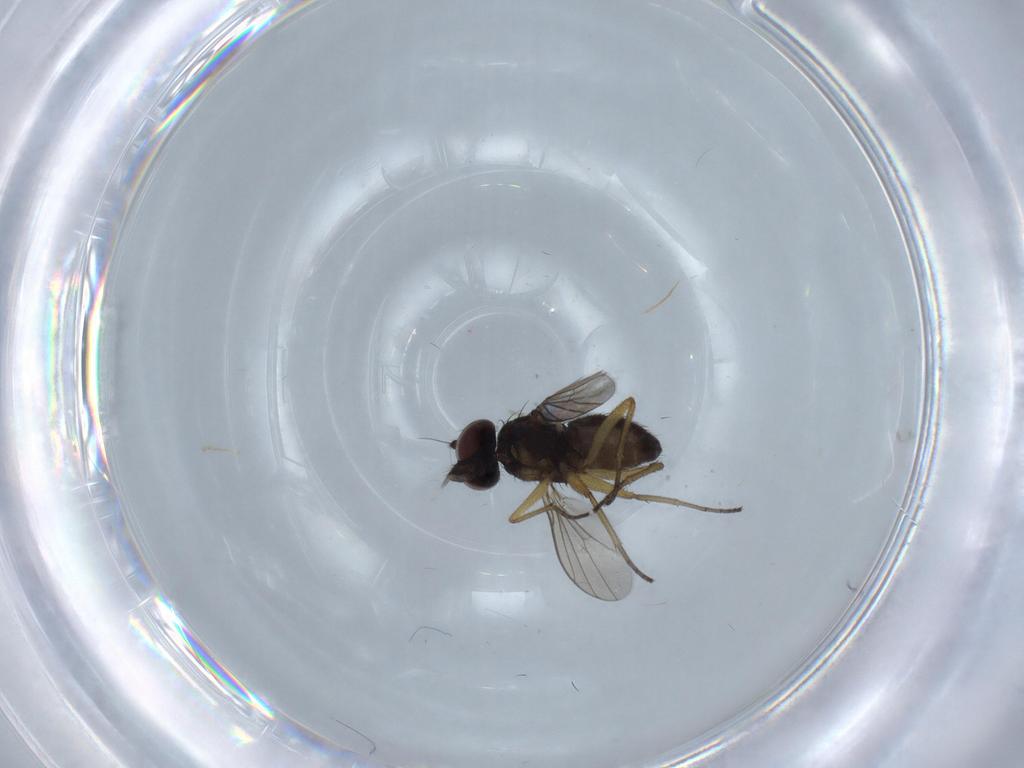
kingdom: Animalia
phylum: Arthropoda
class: Insecta
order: Diptera
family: Dolichopodidae
